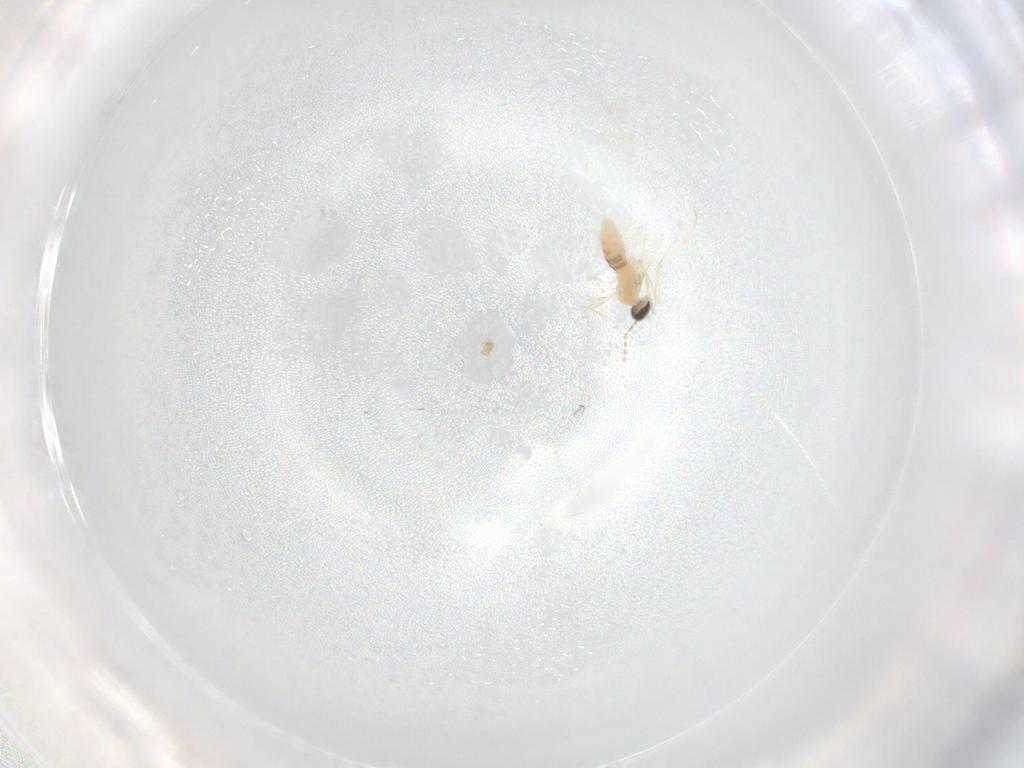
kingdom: Animalia
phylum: Arthropoda
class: Insecta
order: Diptera
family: Cecidomyiidae
